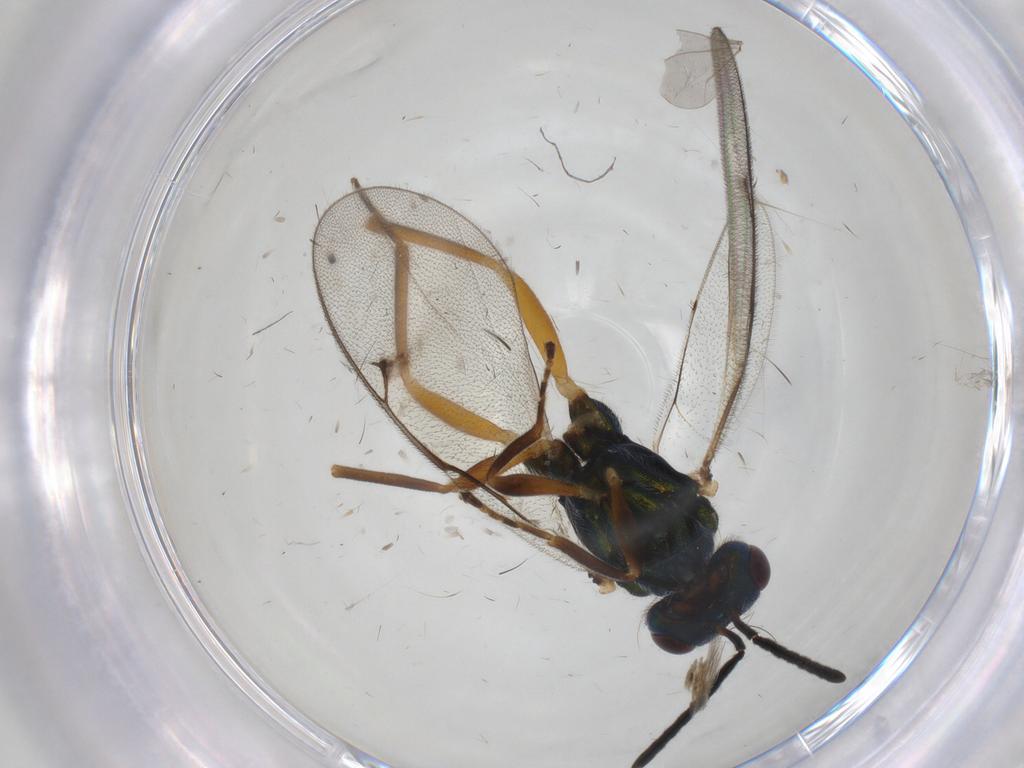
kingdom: Animalia
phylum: Arthropoda
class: Insecta
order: Hymenoptera
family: Pteromalidae
